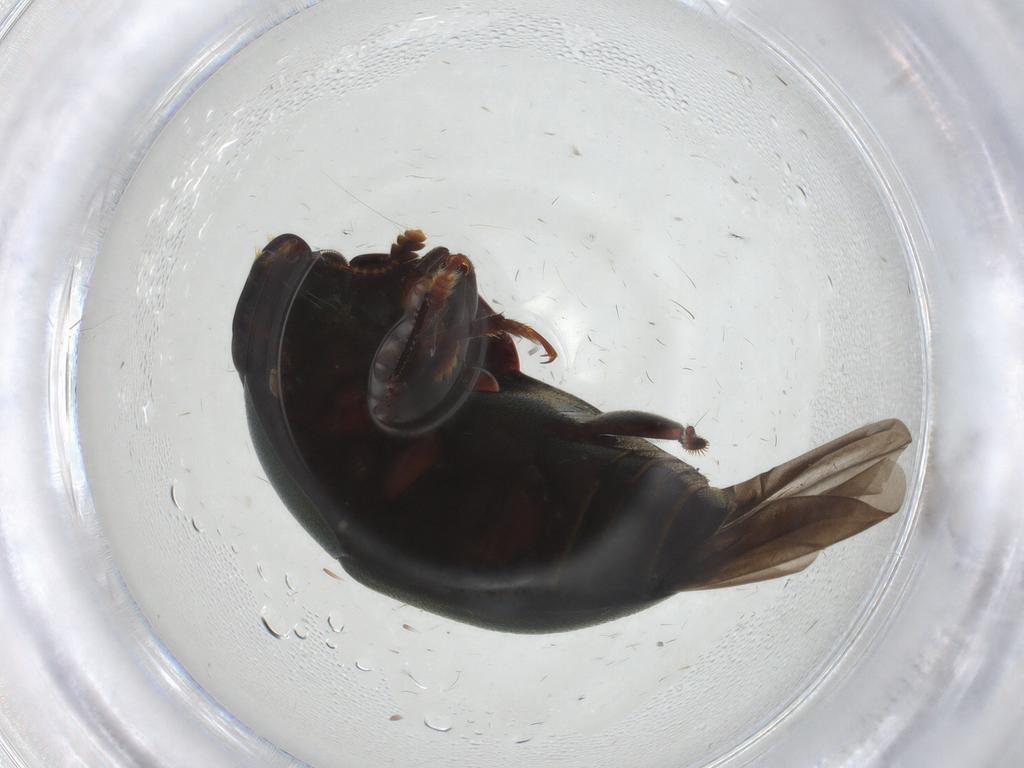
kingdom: Animalia
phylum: Arthropoda
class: Insecta
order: Coleoptera
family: Nitidulidae
